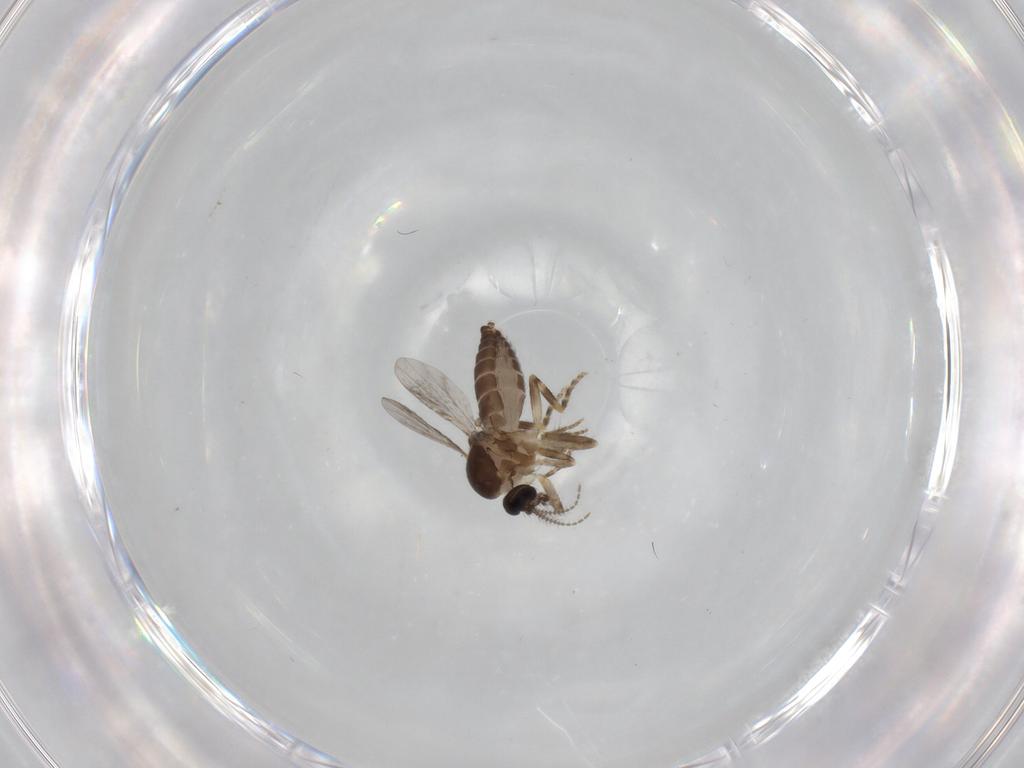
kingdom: Animalia
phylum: Arthropoda
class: Insecta
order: Diptera
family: Ceratopogonidae
